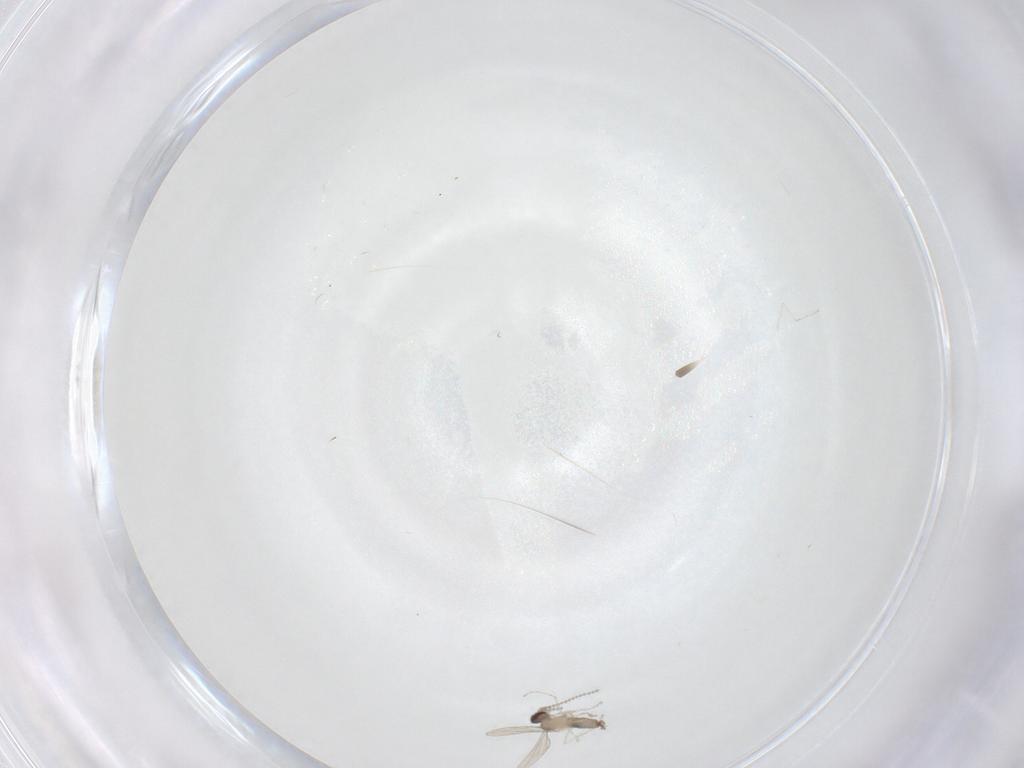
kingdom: Animalia
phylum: Arthropoda
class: Insecta
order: Diptera
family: Cecidomyiidae
